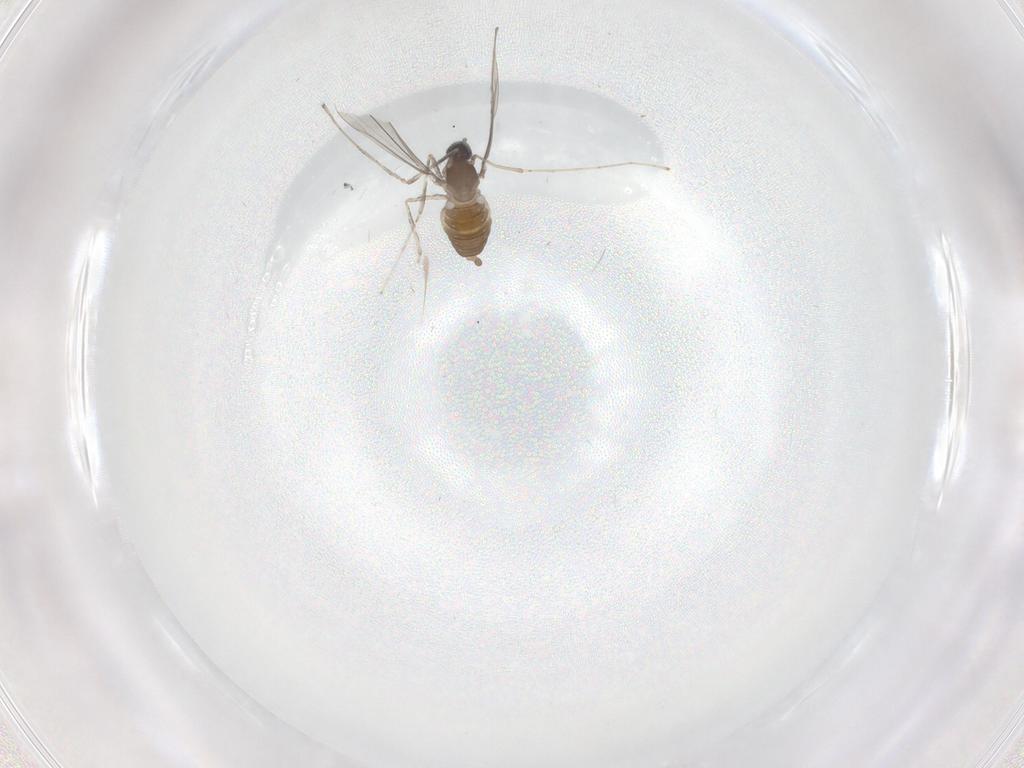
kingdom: Animalia
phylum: Arthropoda
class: Insecta
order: Diptera
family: Cecidomyiidae
